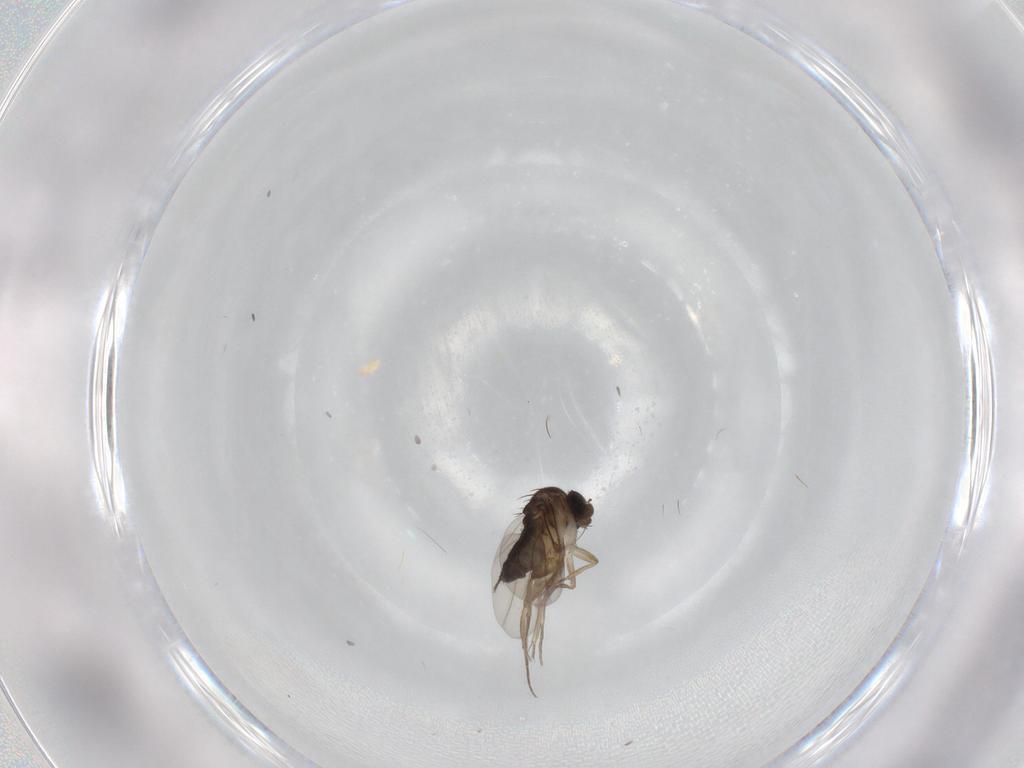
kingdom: Animalia
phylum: Arthropoda
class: Insecta
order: Diptera
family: Phoridae
